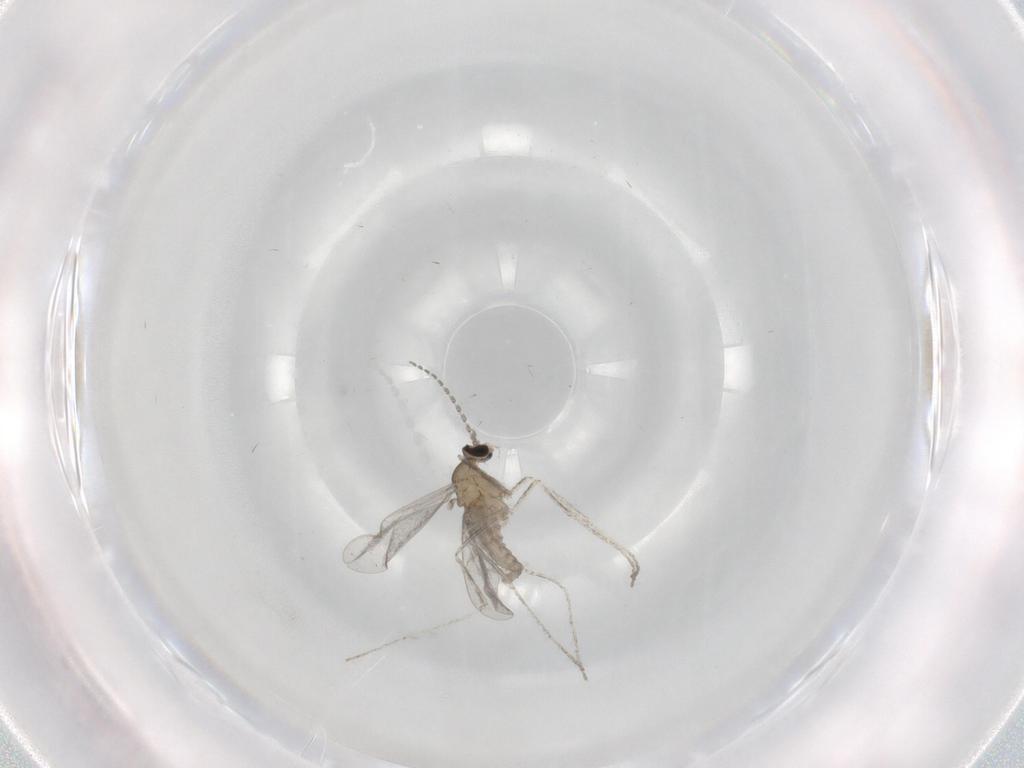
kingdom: Animalia
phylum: Arthropoda
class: Insecta
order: Diptera
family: Cecidomyiidae
